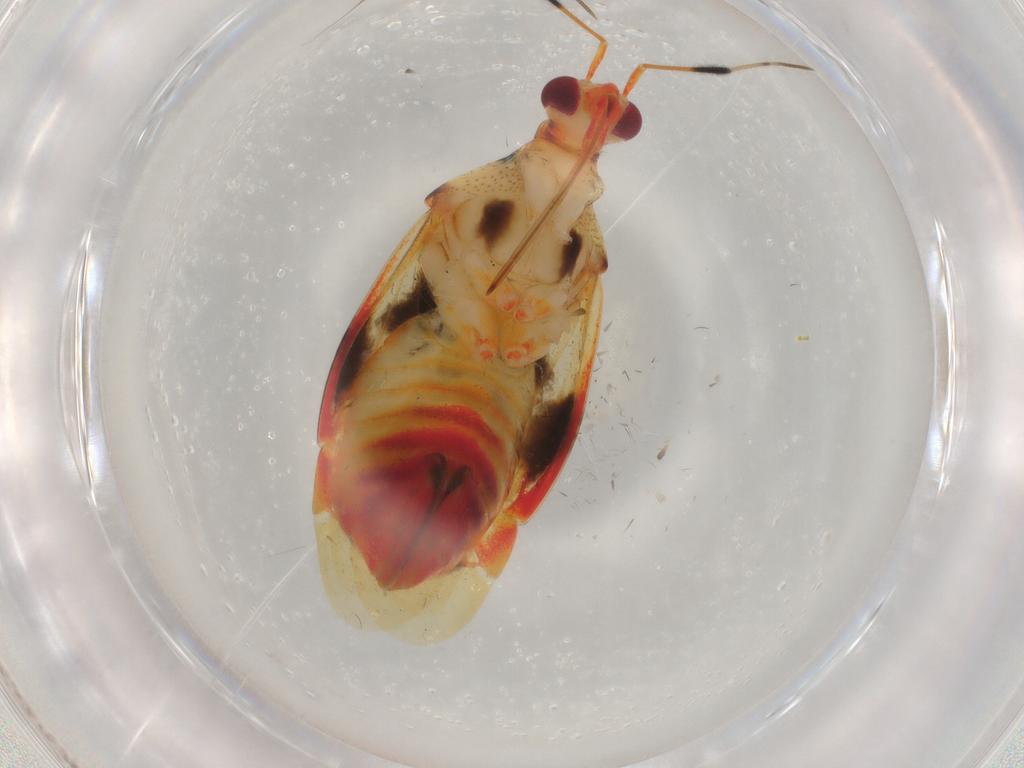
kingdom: Animalia
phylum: Arthropoda
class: Insecta
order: Hemiptera
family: Miridae
